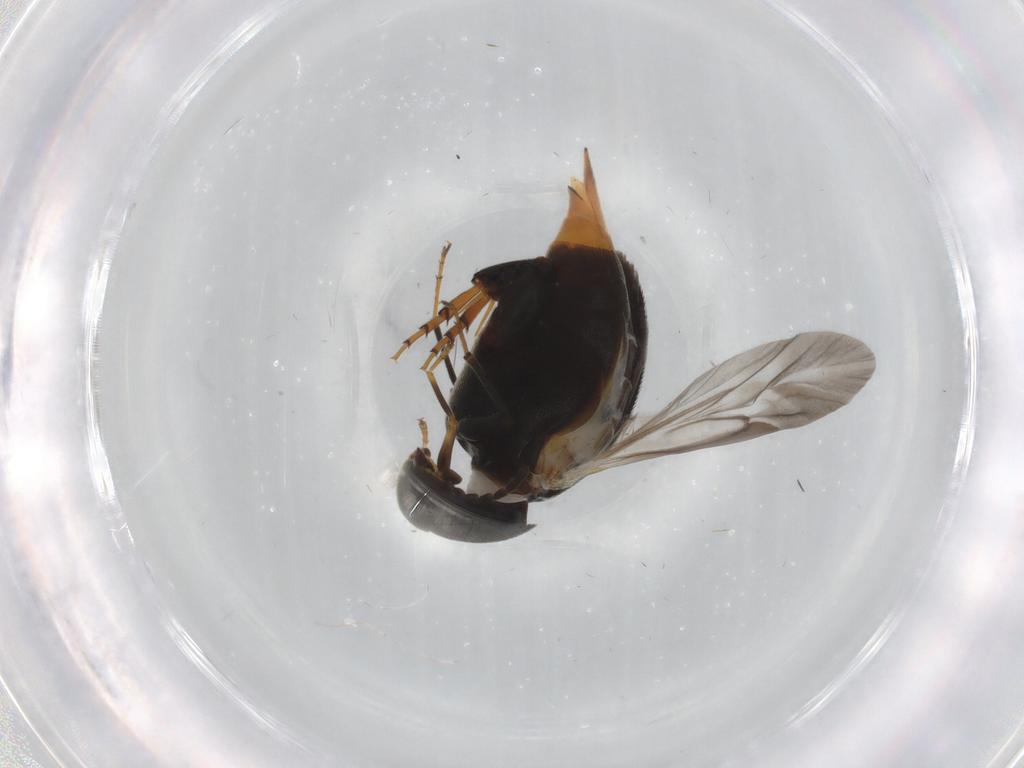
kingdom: Animalia
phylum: Arthropoda
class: Insecta
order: Coleoptera
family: Mordellidae
